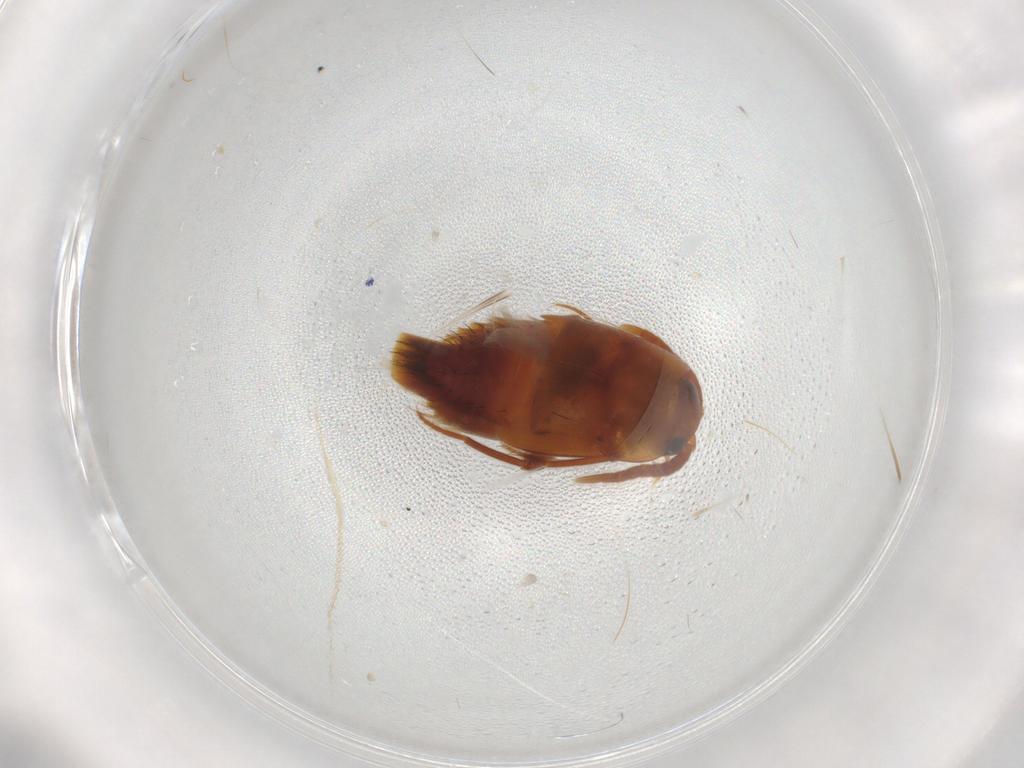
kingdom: Animalia
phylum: Arthropoda
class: Insecta
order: Coleoptera
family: Staphylinidae
